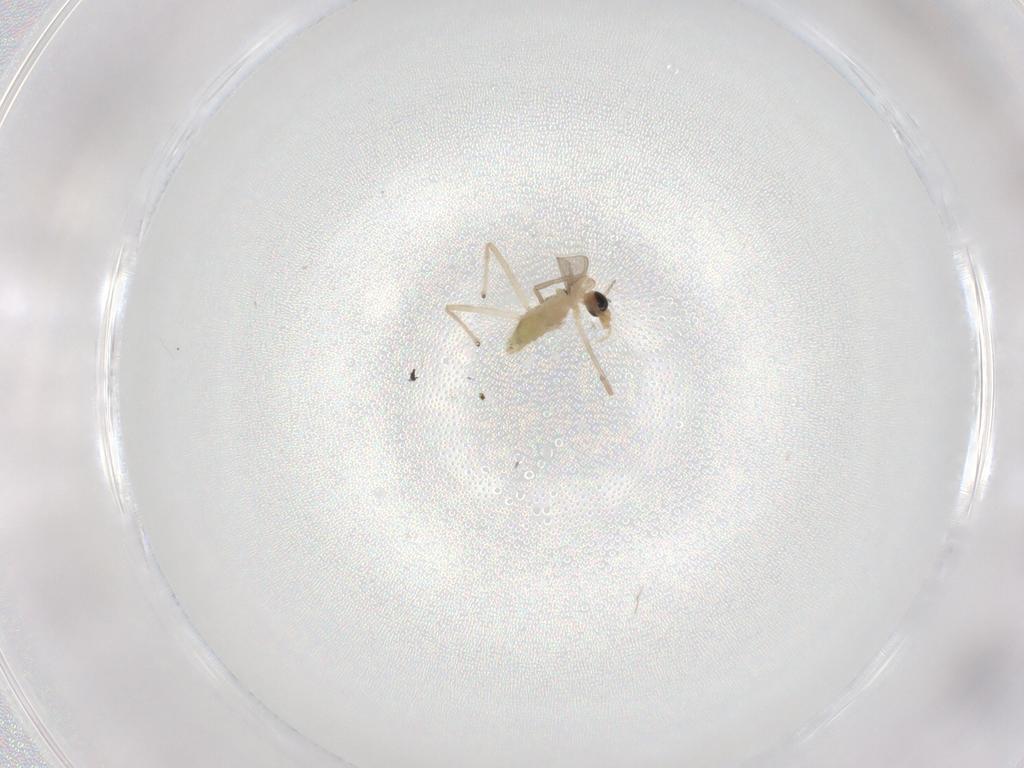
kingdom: Animalia
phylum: Arthropoda
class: Insecta
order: Diptera
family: Chironomidae
